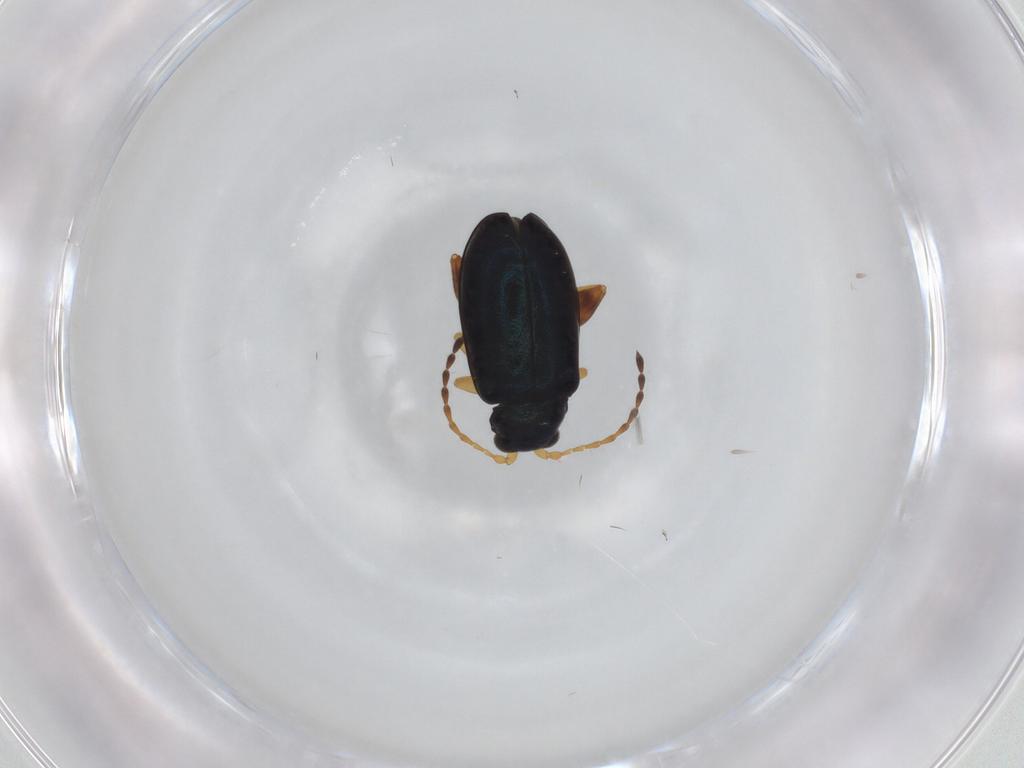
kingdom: Animalia
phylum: Arthropoda
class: Insecta
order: Coleoptera
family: Chrysomelidae
